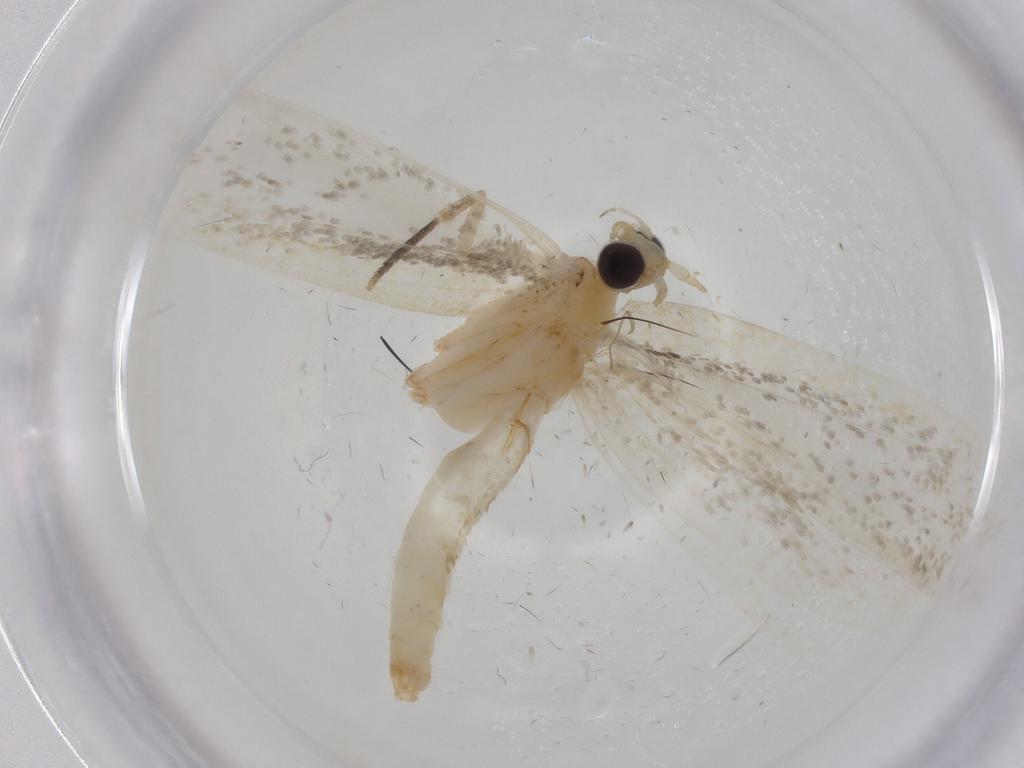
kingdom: Animalia
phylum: Arthropoda
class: Insecta
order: Lepidoptera
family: Tineidae
